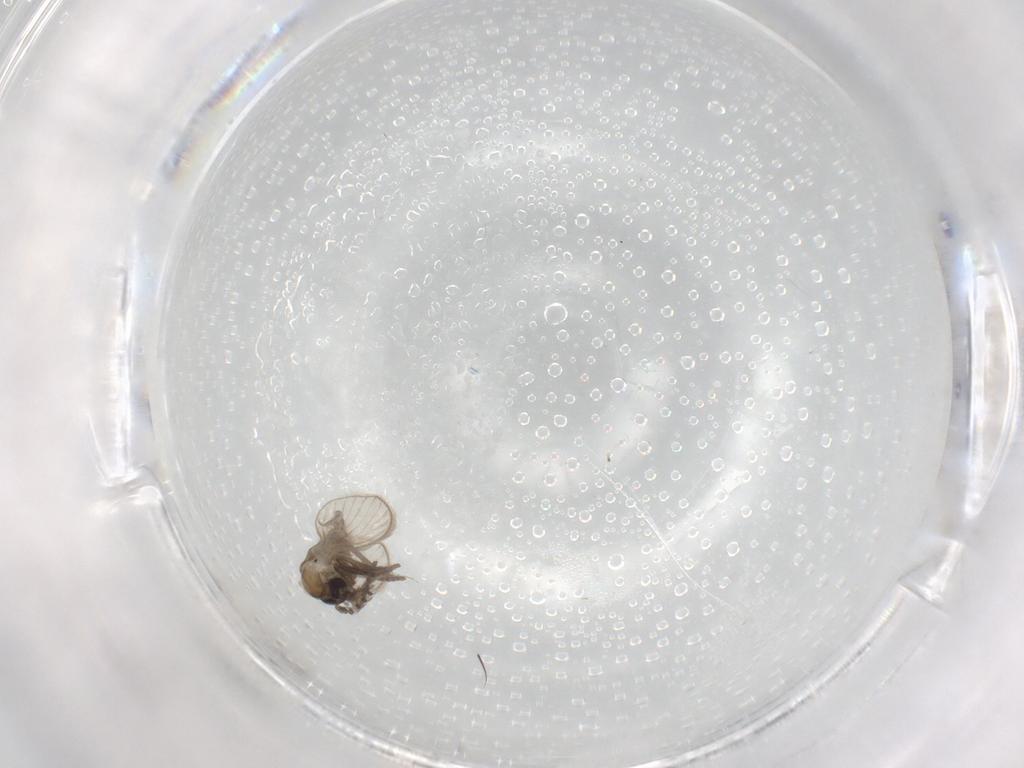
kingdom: Animalia
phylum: Arthropoda
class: Insecta
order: Diptera
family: Psychodidae
